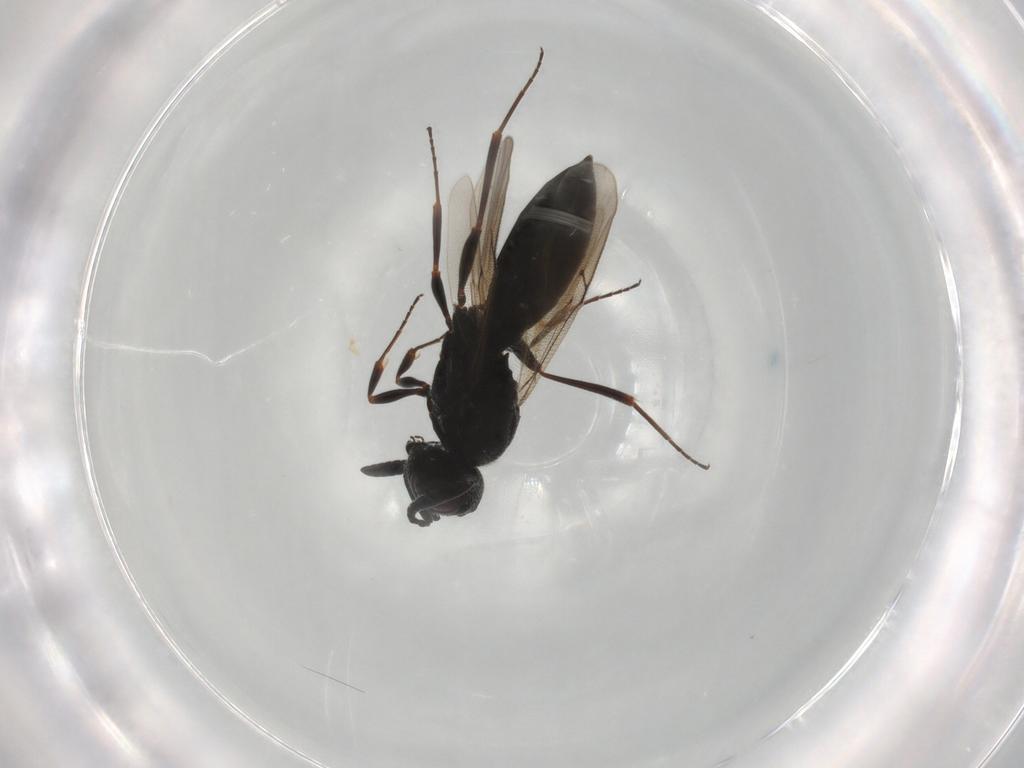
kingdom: Animalia
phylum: Arthropoda
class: Insecta
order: Hymenoptera
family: Scelionidae
